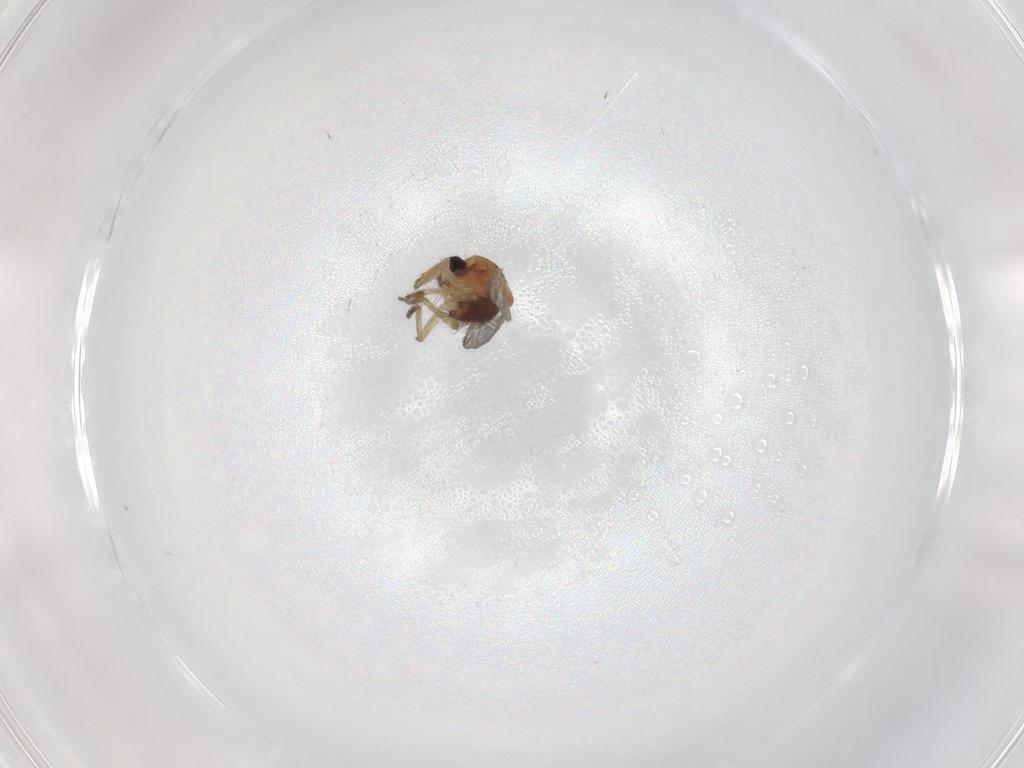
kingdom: Animalia
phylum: Arthropoda
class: Insecta
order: Diptera
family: Ceratopogonidae
